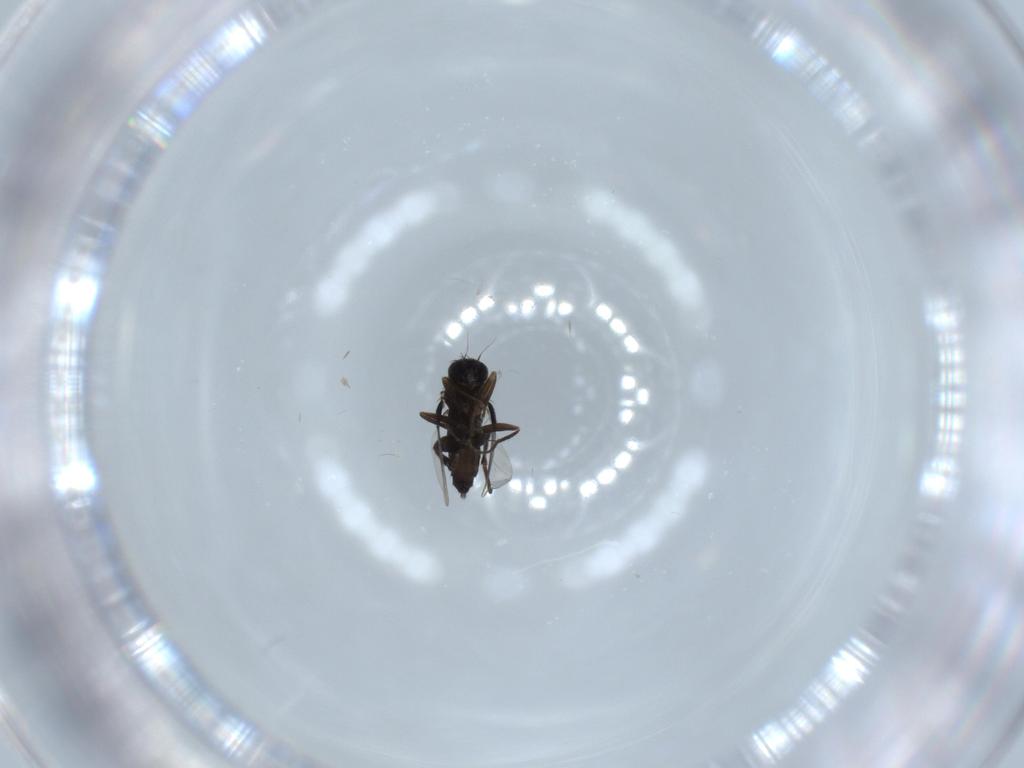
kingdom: Animalia
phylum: Arthropoda
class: Insecta
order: Diptera
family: Phoridae
